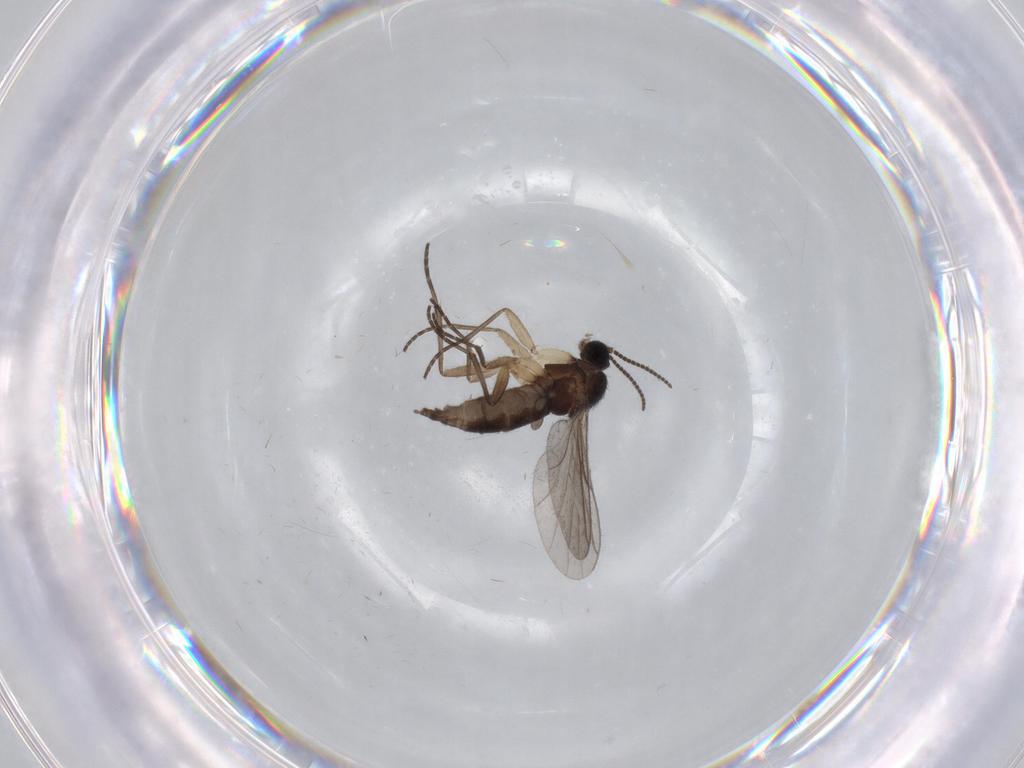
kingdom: Animalia
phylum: Arthropoda
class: Insecta
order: Diptera
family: Sciaridae
